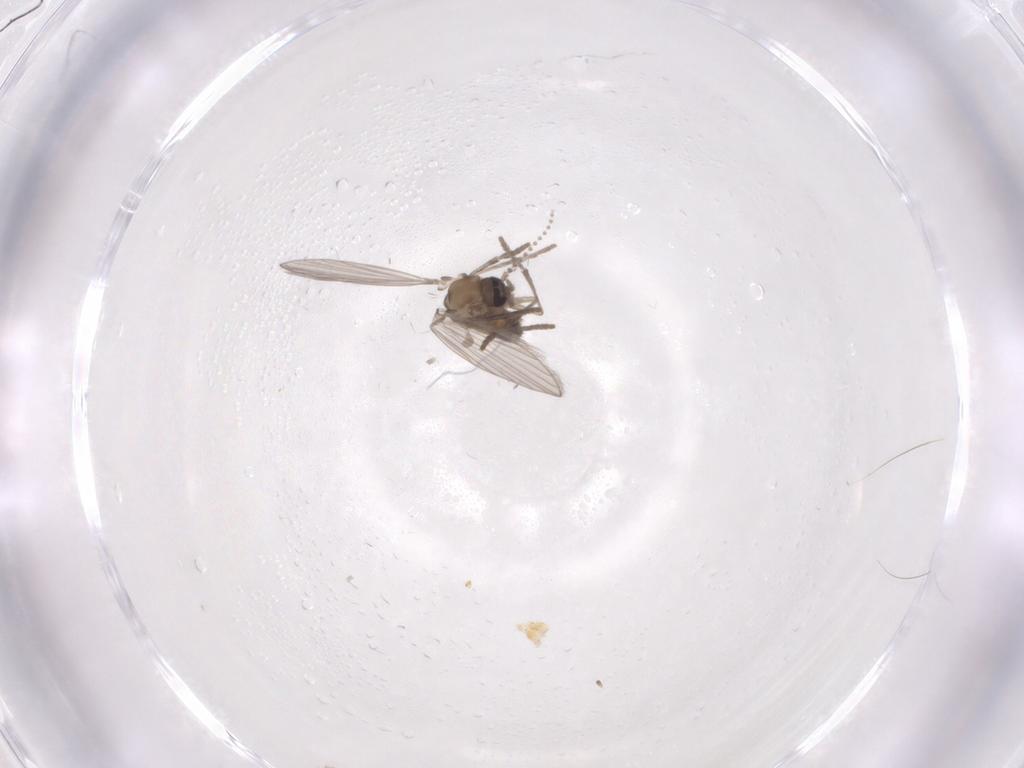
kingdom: Animalia
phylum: Arthropoda
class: Insecta
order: Diptera
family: Psychodidae
